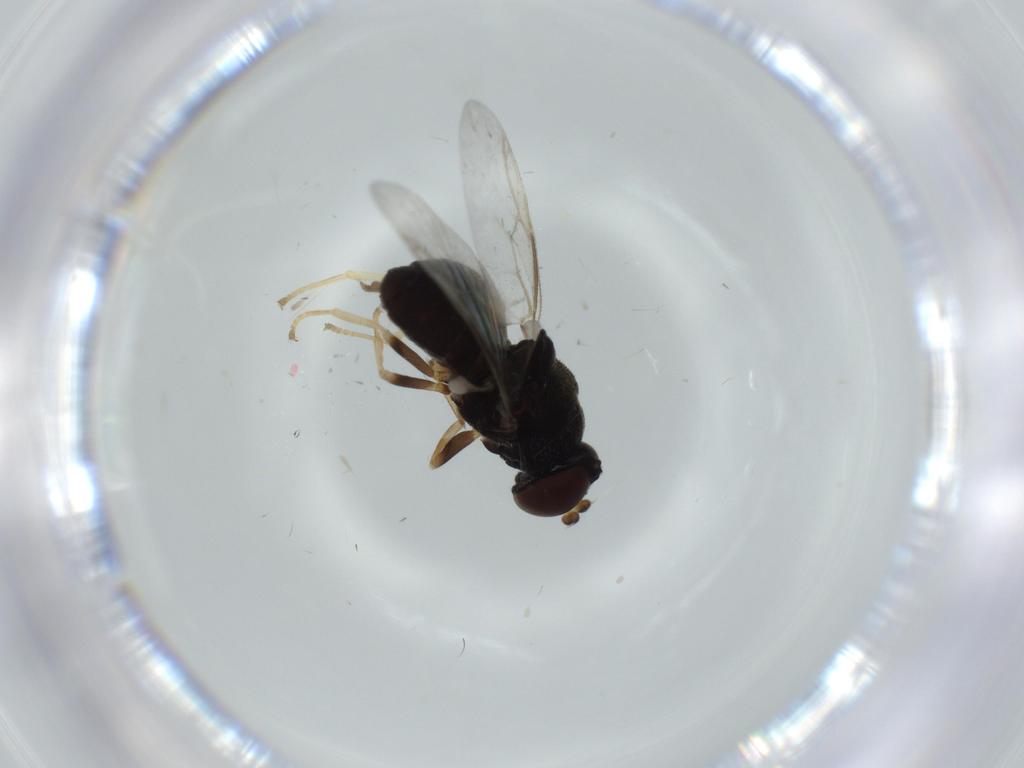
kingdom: Animalia
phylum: Arthropoda
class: Insecta
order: Diptera
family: Stratiomyidae
